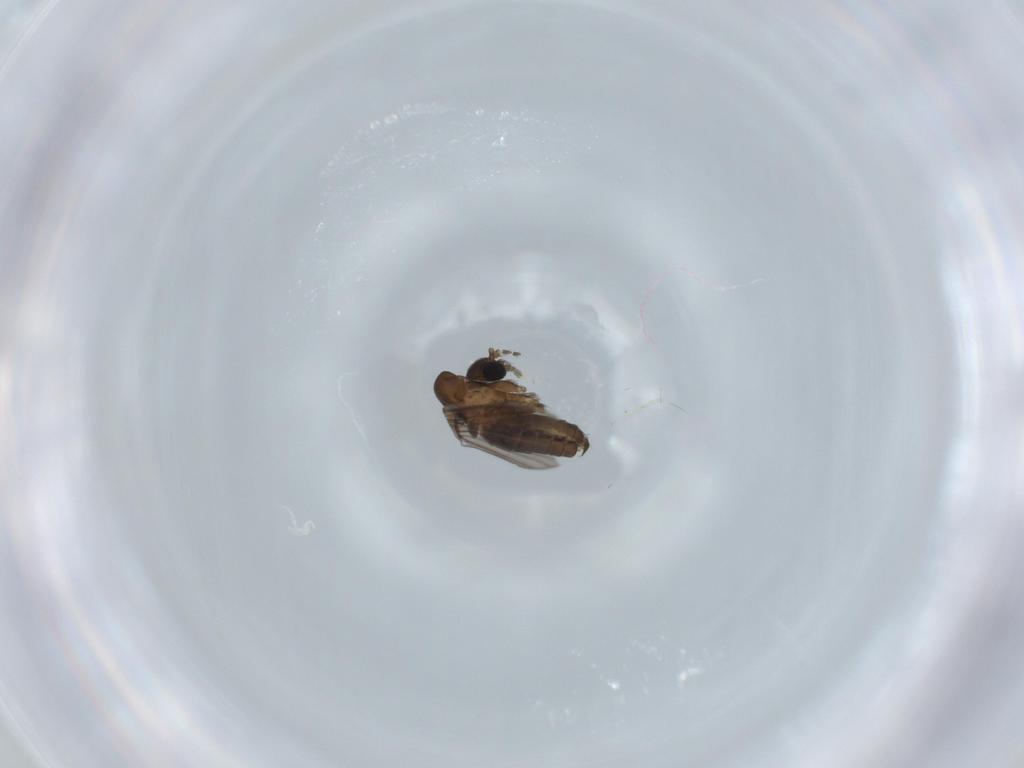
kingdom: Animalia
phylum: Arthropoda
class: Insecta
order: Diptera
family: Psychodidae
